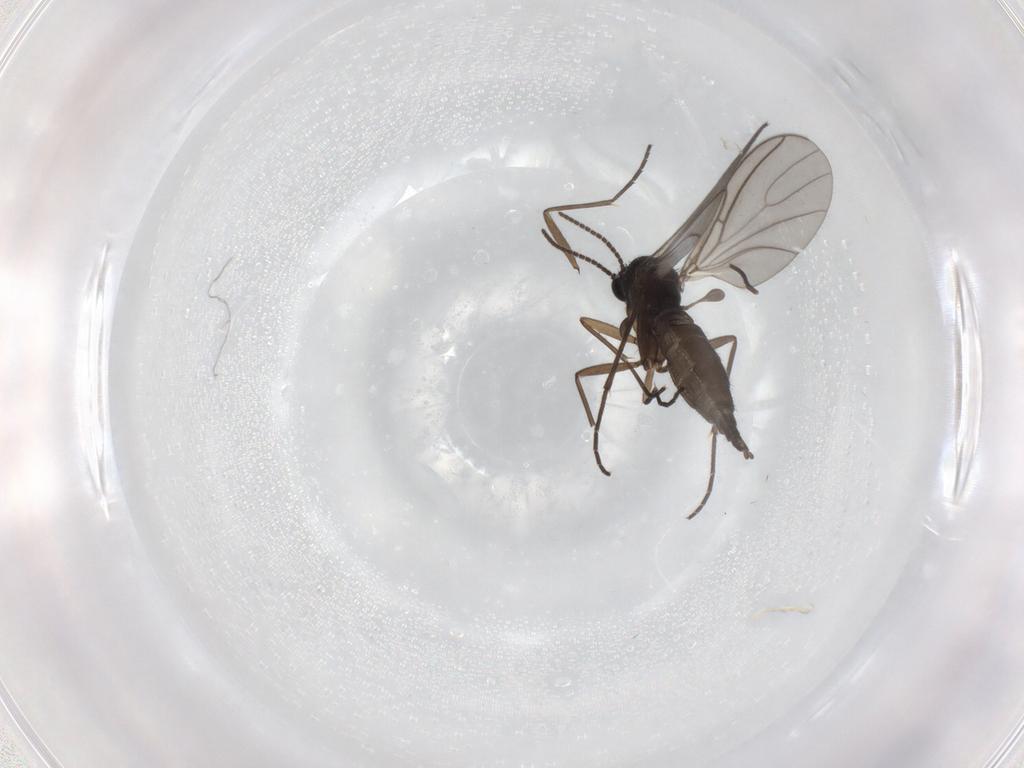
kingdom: Animalia
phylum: Arthropoda
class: Insecta
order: Diptera
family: Sciaridae
